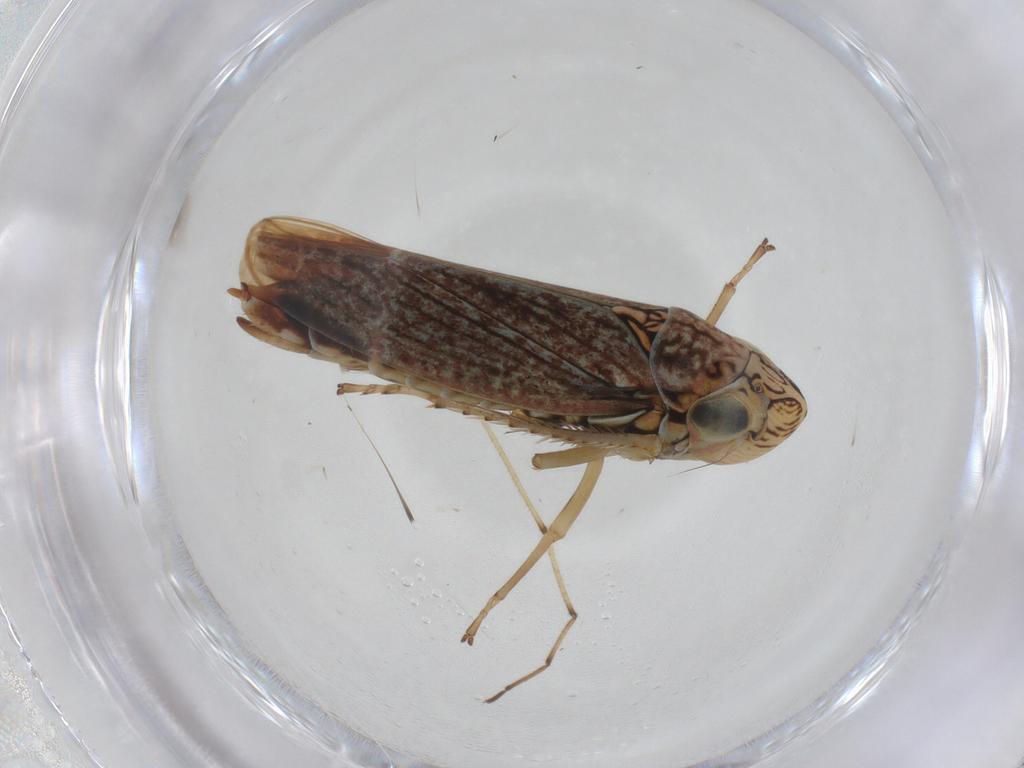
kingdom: Animalia
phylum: Arthropoda
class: Insecta
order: Hemiptera
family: Cicadellidae
